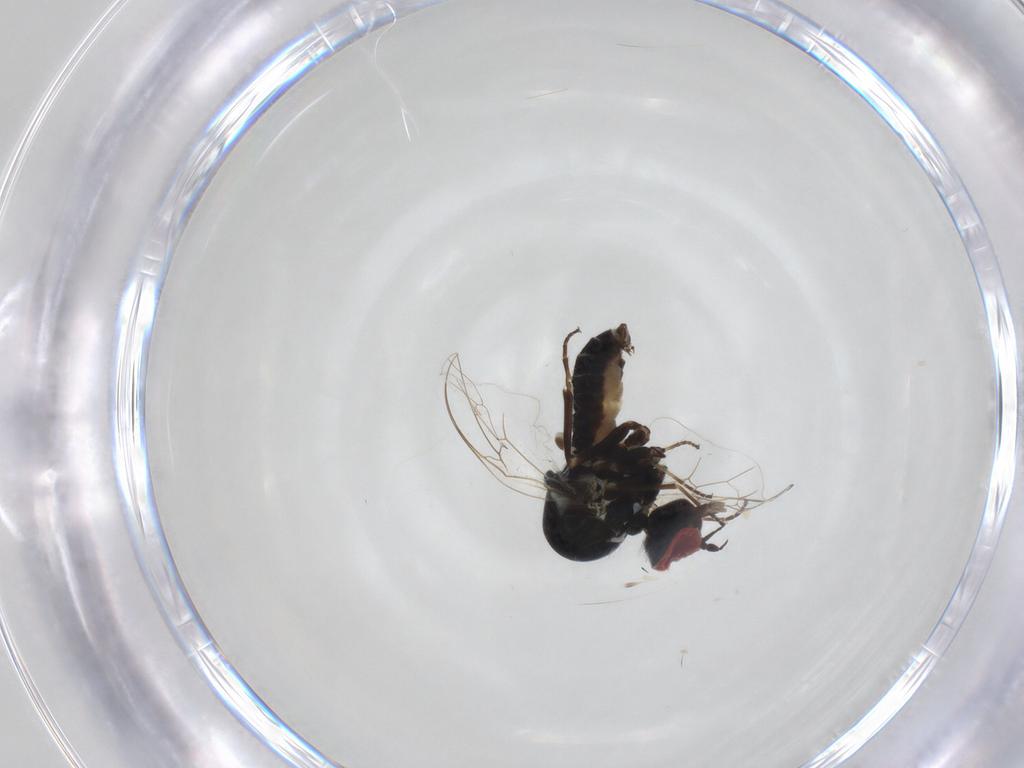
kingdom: Animalia
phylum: Arthropoda
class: Insecta
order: Diptera
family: Bombyliidae
